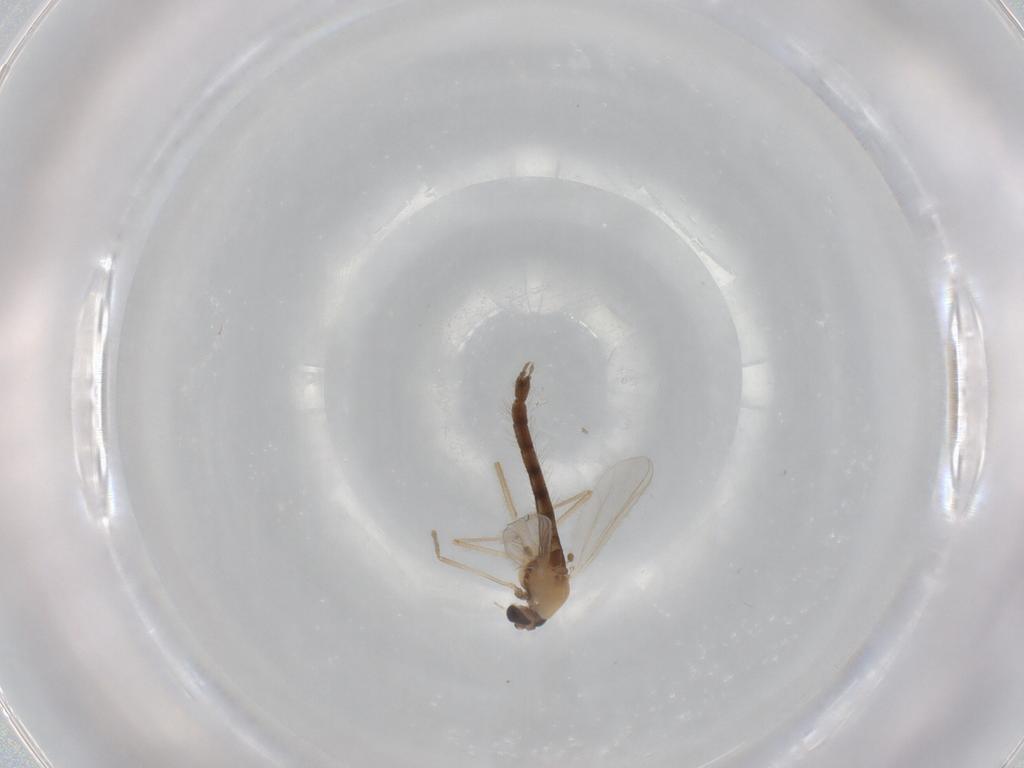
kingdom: Animalia
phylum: Arthropoda
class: Insecta
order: Diptera
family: Chironomidae
